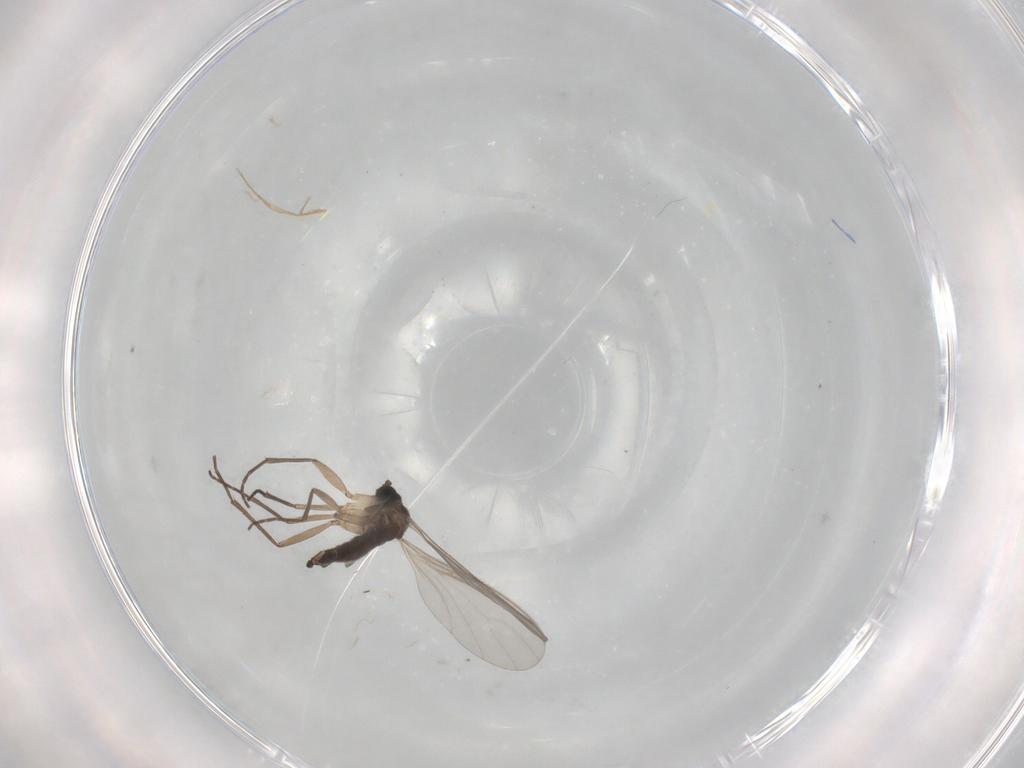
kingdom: Animalia
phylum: Arthropoda
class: Insecta
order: Diptera
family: Sciaridae
